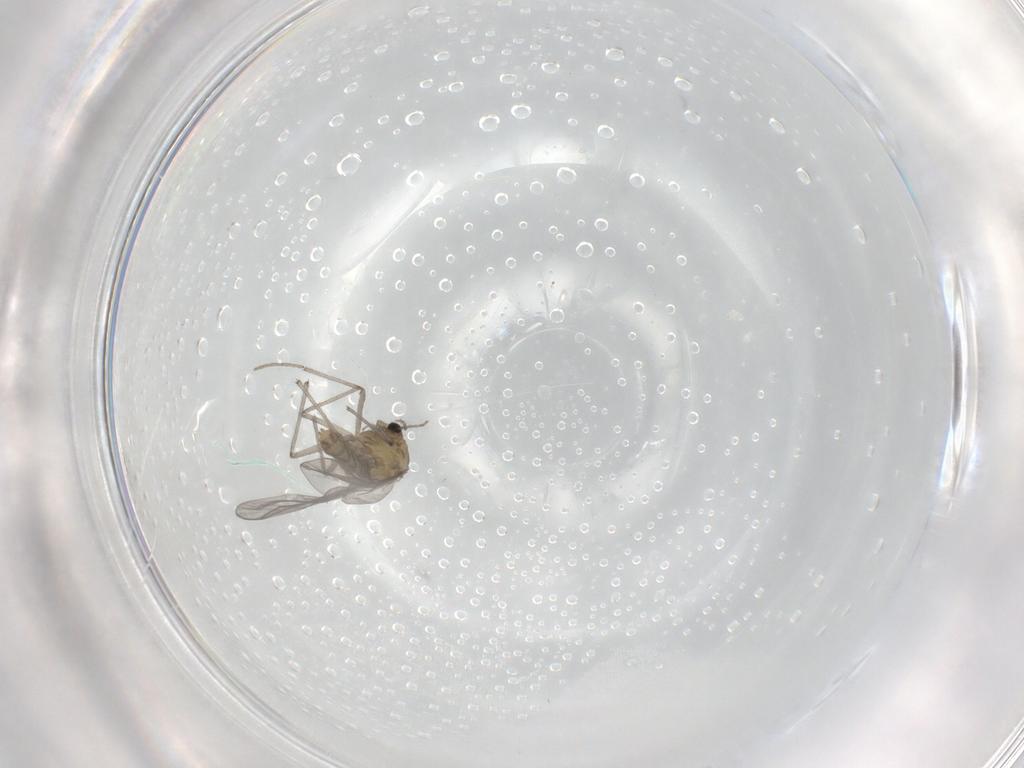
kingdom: Animalia
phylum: Arthropoda
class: Insecta
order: Diptera
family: Chironomidae
